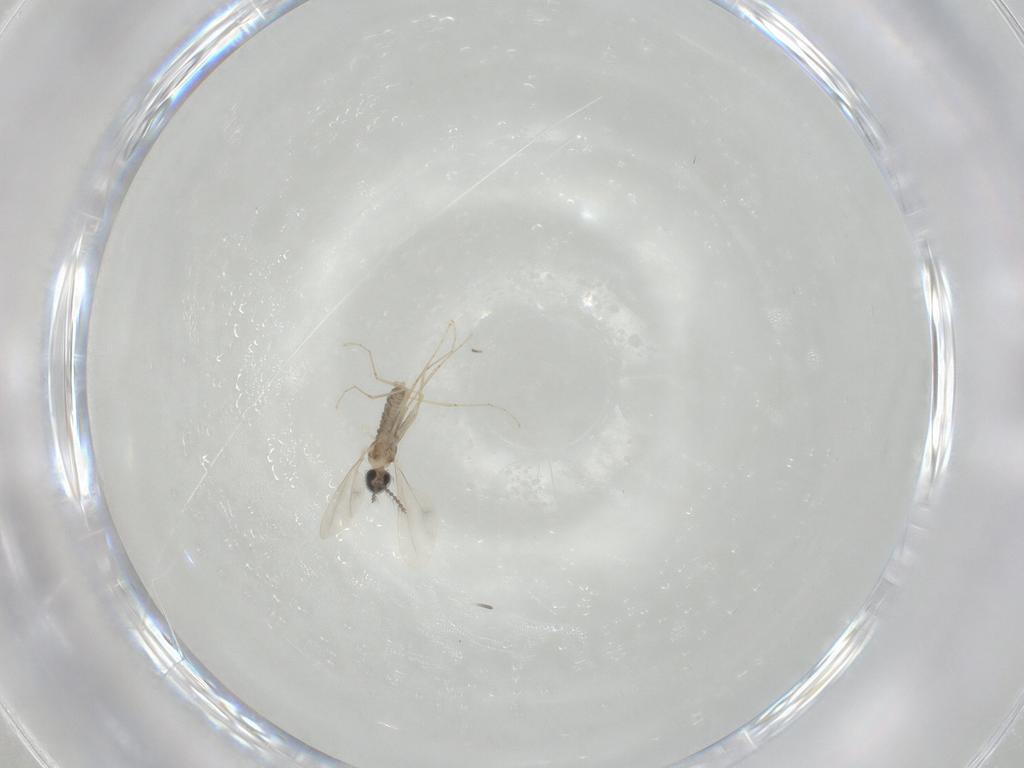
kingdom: Animalia
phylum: Arthropoda
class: Insecta
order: Diptera
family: Cecidomyiidae
